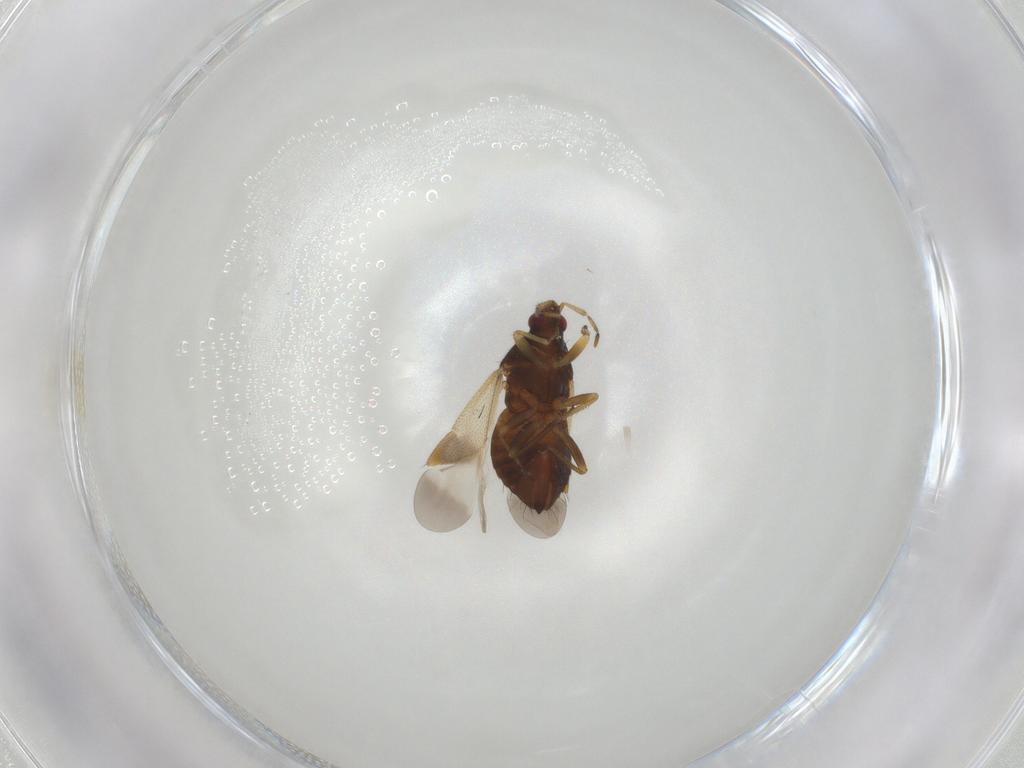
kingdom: Animalia
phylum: Arthropoda
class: Insecta
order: Hemiptera
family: Anthocoridae
